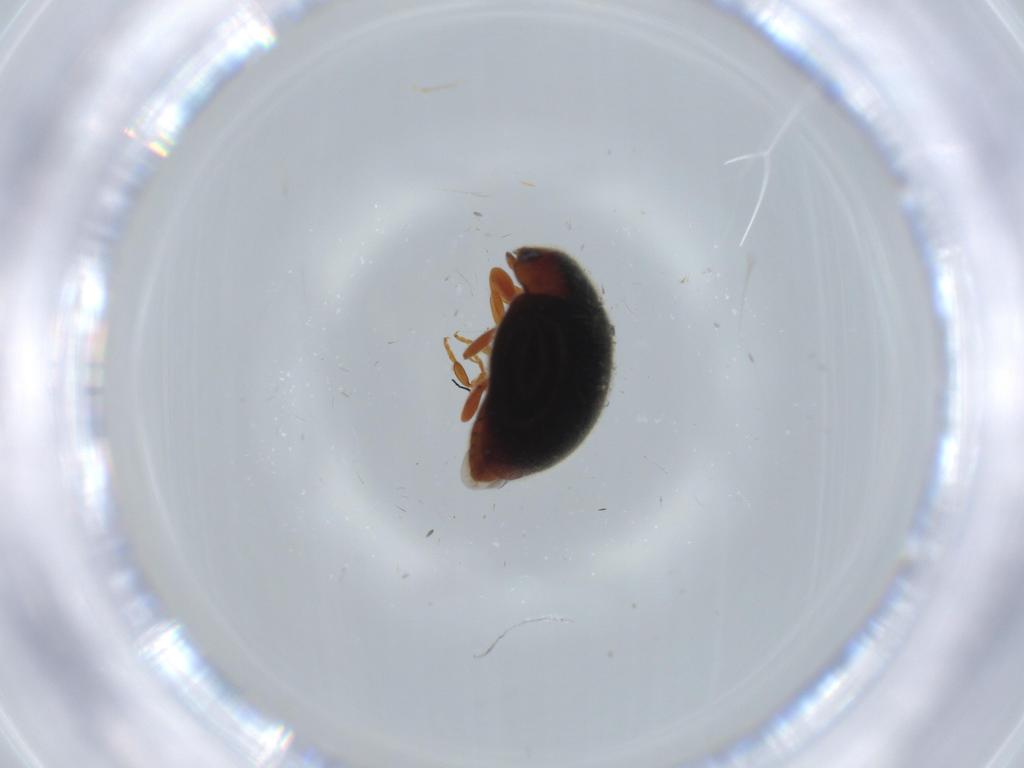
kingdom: Animalia
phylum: Arthropoda
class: Insecta
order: Coleoptera
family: Coccinellidae
